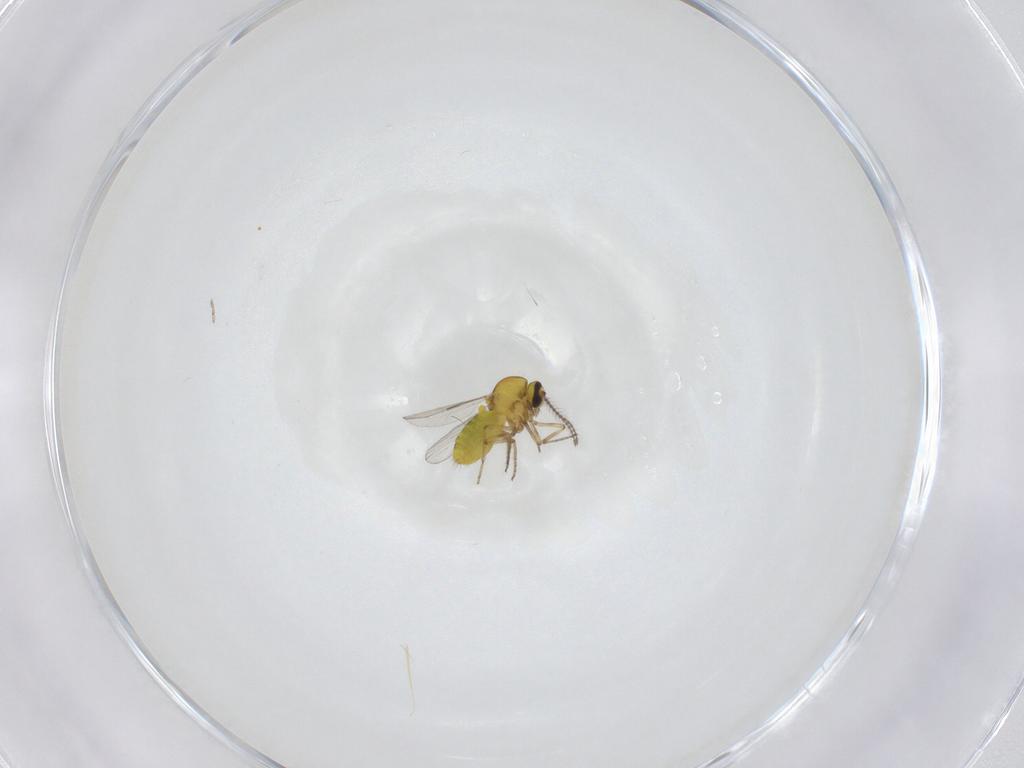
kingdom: Animalia
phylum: Arthropoda
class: Insecta
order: Diptera
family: Ceratopogonidae
